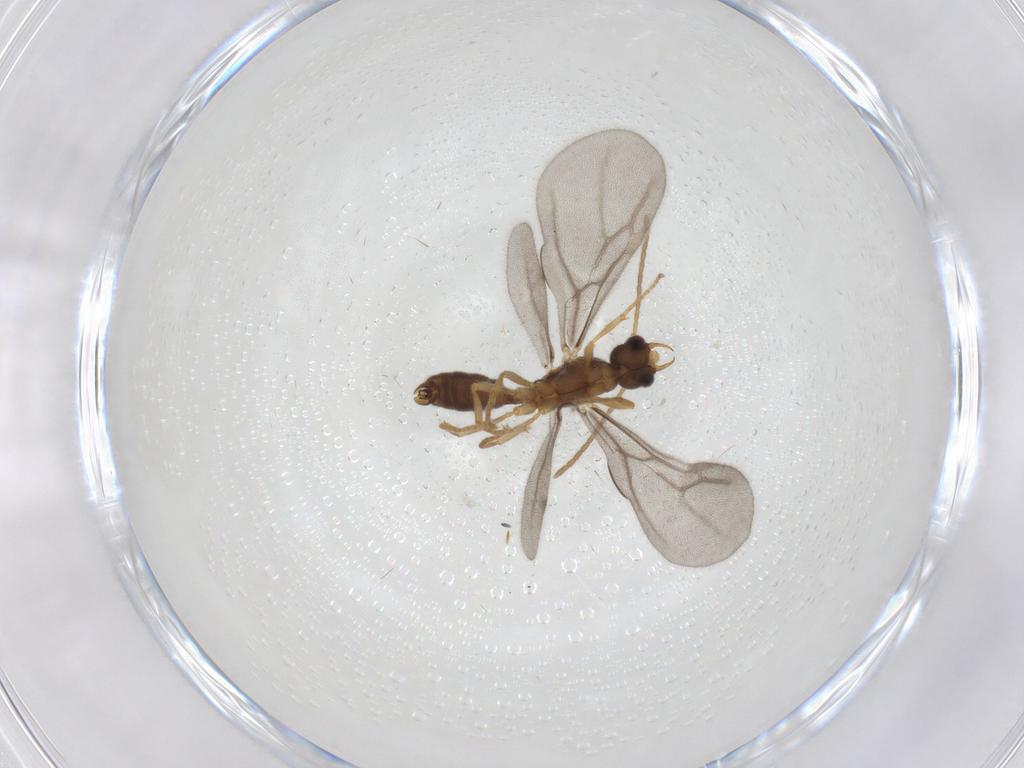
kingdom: Animalia
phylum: Arthropoda
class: Insecta
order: Hymenoptera
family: Formicidae
